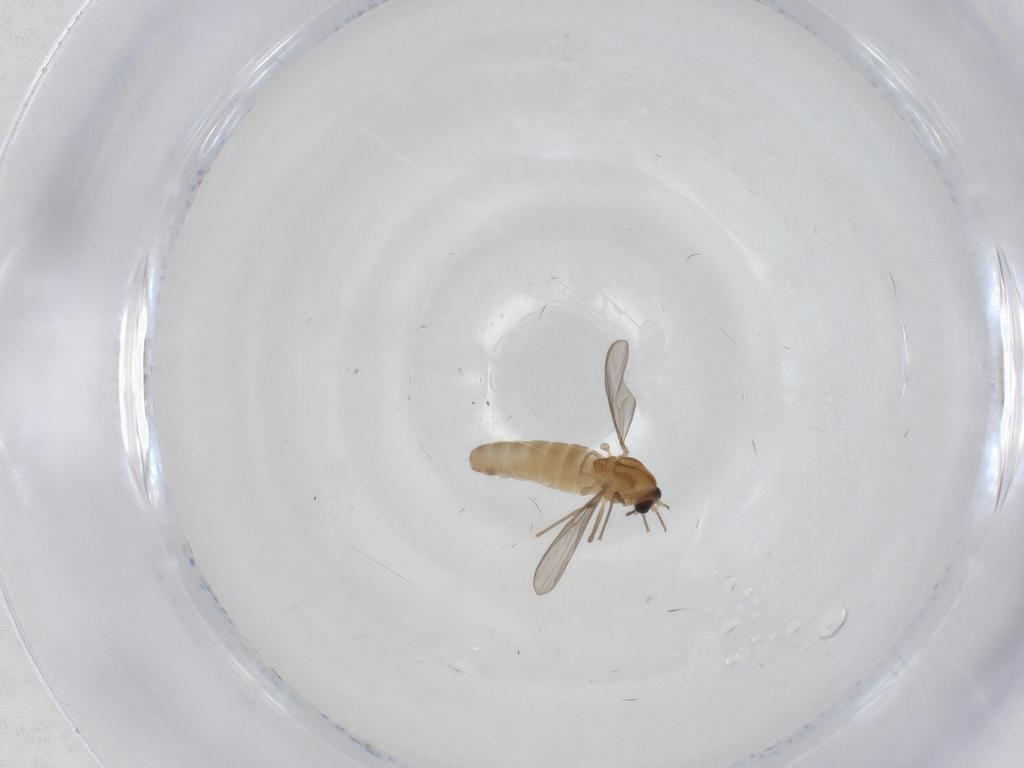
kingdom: Animalia
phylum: Arthropoda
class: Insecta
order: Diptera
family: Chironomidae
